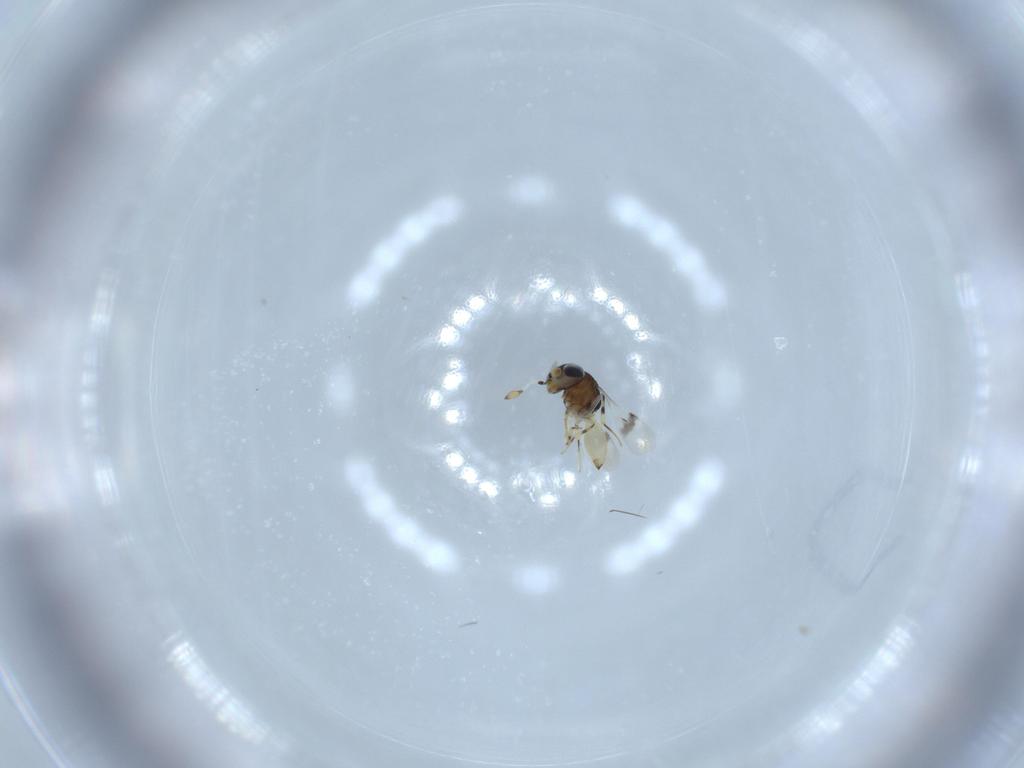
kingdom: Animalia
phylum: Arthropoda
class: Insecta
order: Hymenoptera
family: Scelionidae
